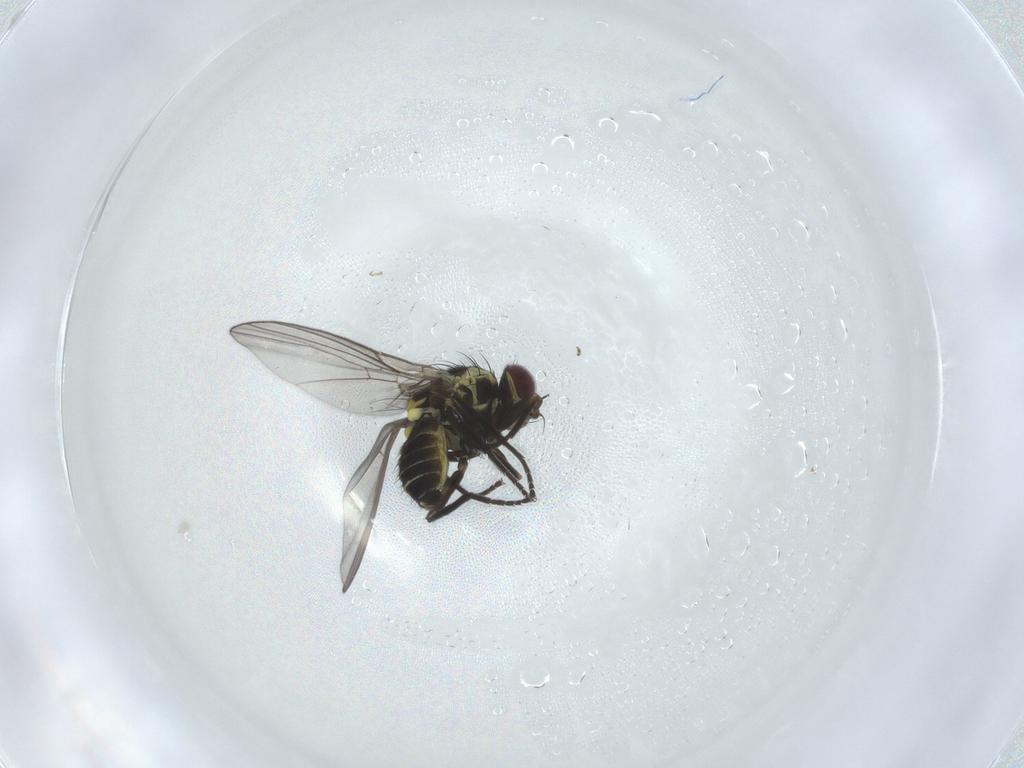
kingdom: Animalia
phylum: Arthropoda
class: Insecta
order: Diptera
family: Agromyzidae
